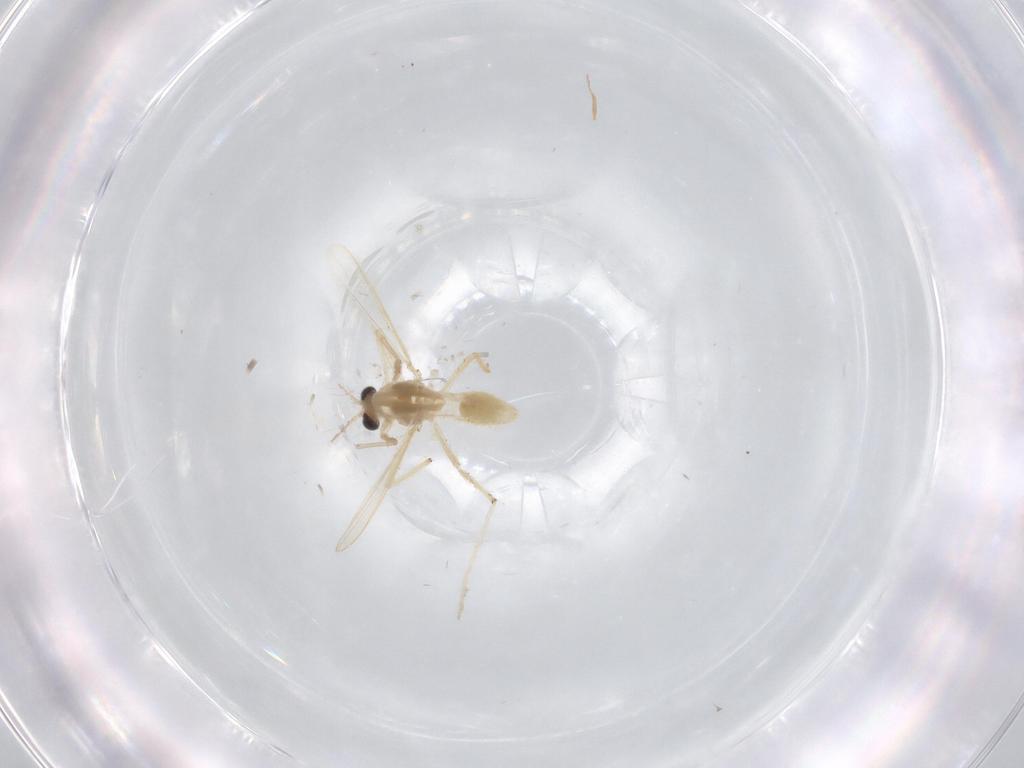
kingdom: Animalia
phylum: Arthropoda
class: Insecta
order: Diptera
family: Chironomidae
